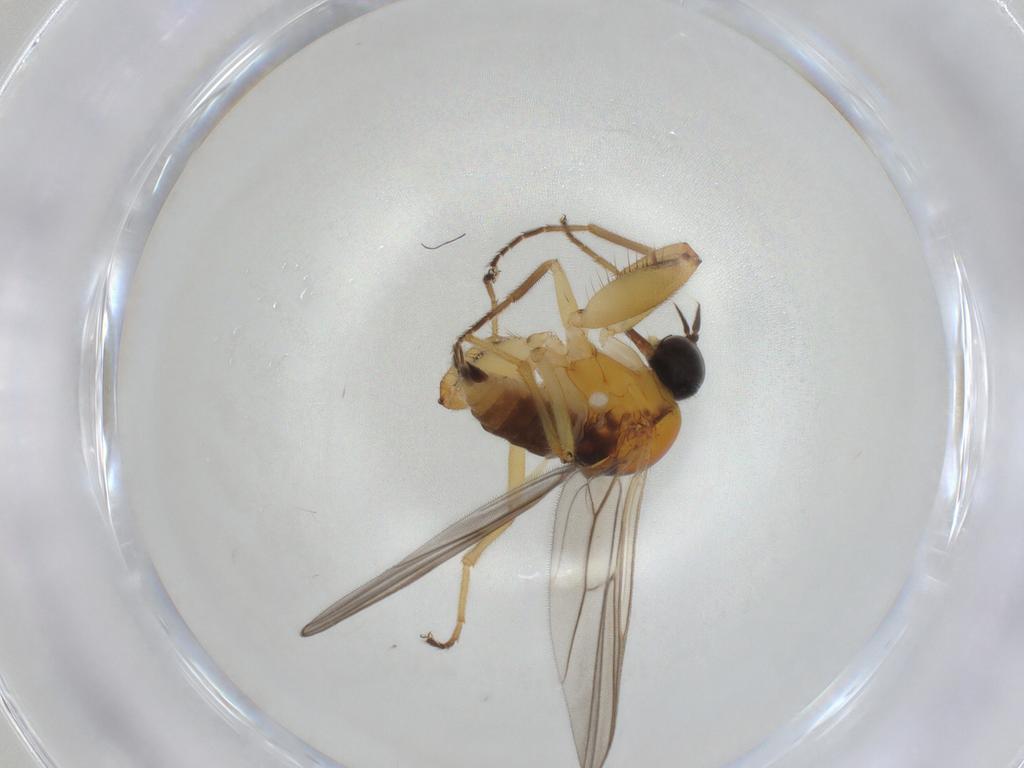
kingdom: Animalia
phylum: Arthropoda
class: Insecta
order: Diptera
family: Hybotidae
